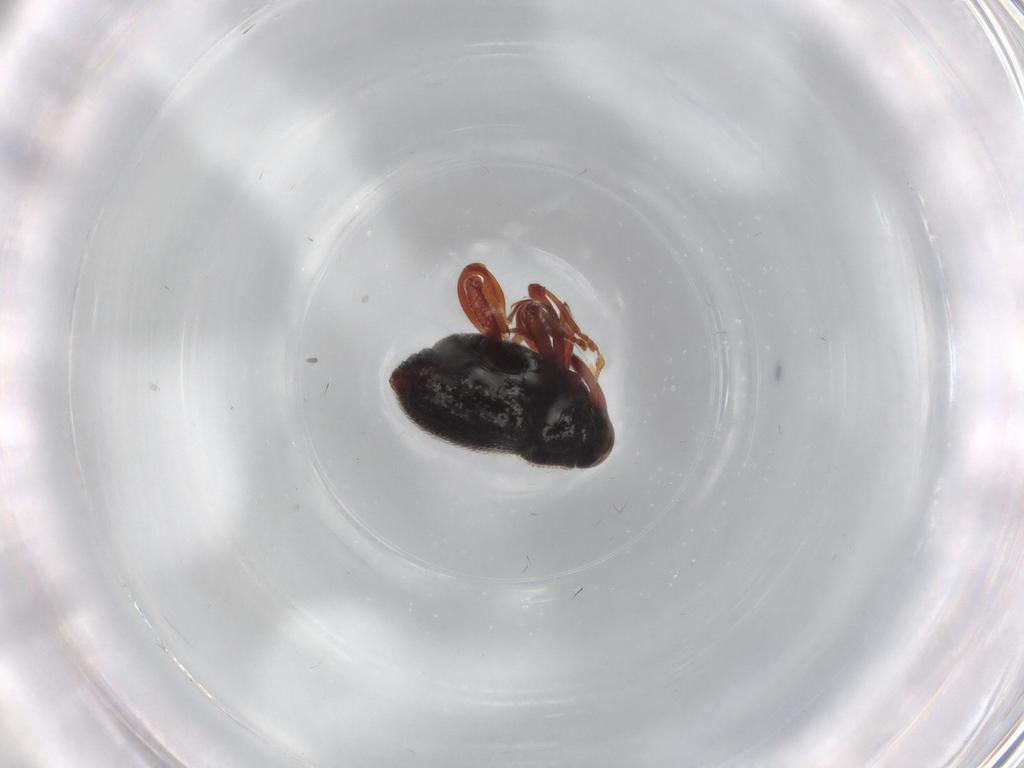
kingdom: Animalia
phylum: Arthropoda
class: Insecta
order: Coleoptera
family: Curculionidae
